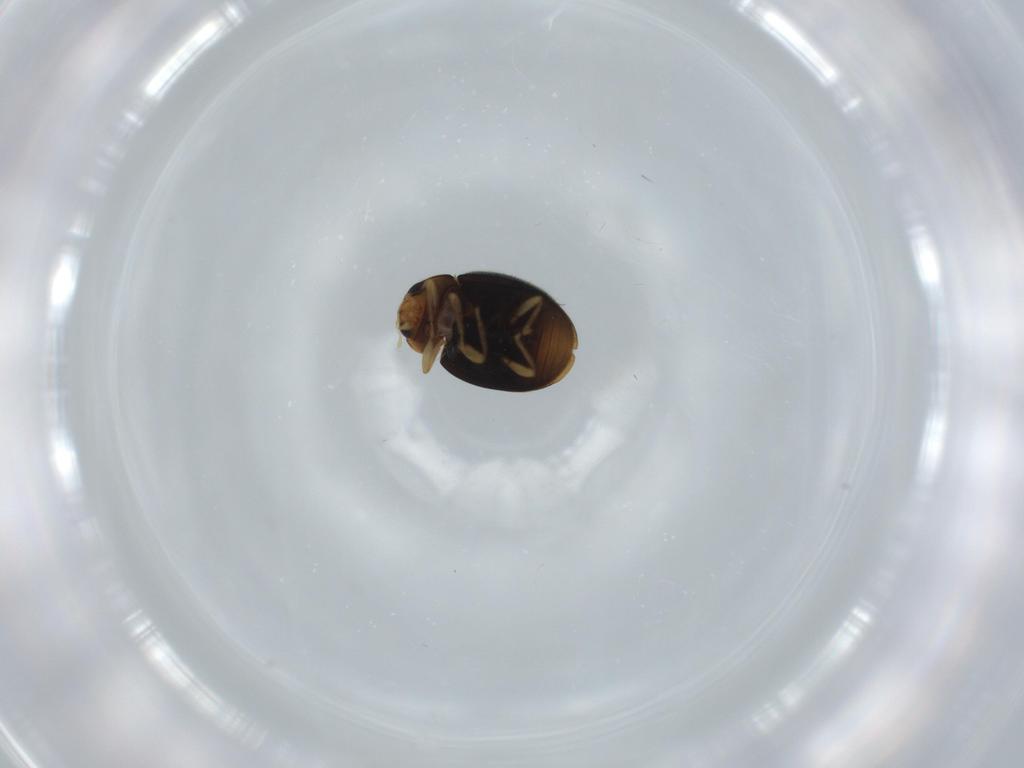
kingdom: Animalia
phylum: Arthropoda
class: Insecta
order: Coleoptera
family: Coccinellidae
